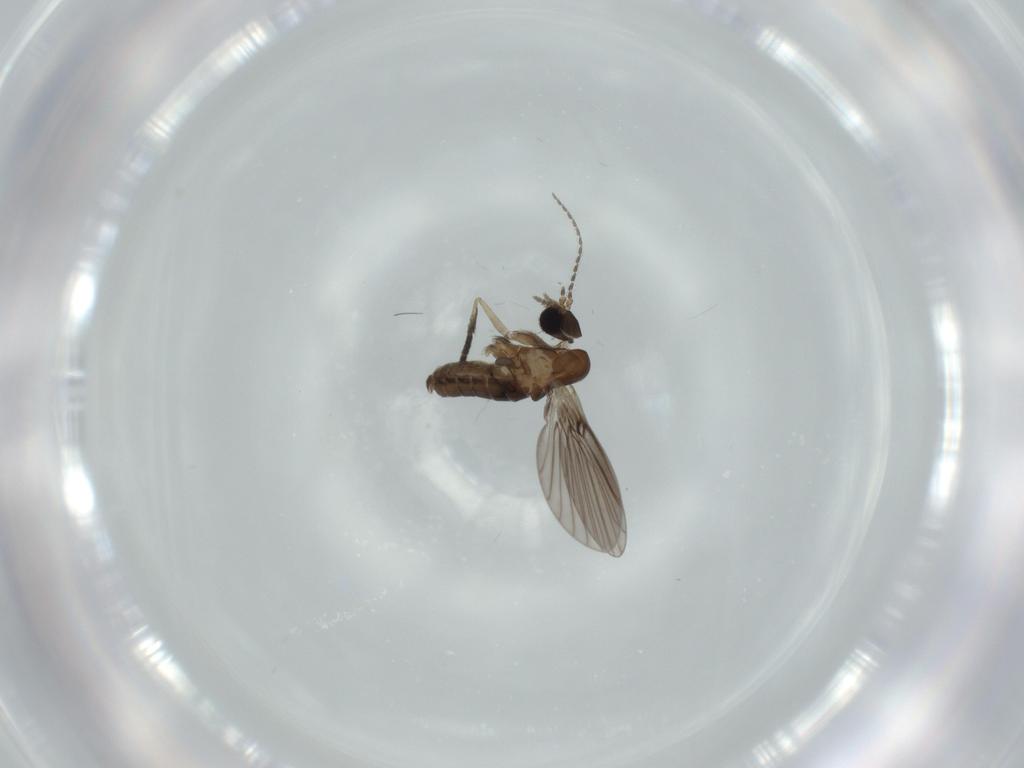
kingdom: Animalia
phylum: Arthropoda
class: Insecta
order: Diptera
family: Psychodidae
